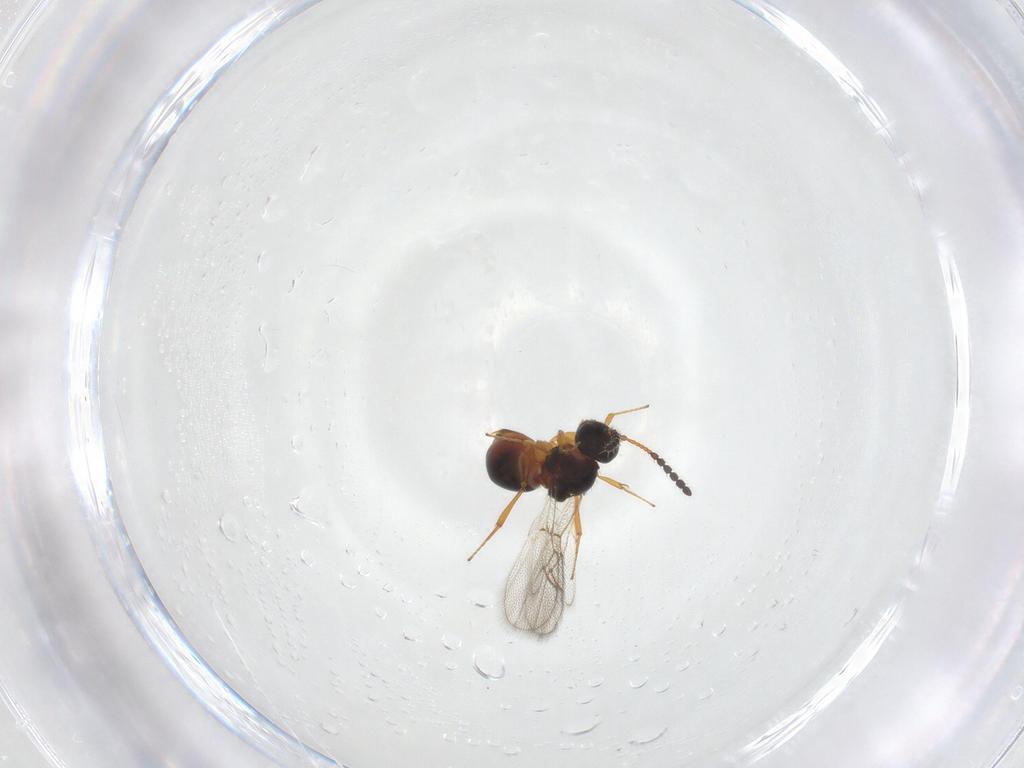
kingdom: Animalia
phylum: Arthropoda
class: Insecta
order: Hymenoptera
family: Figitidae
